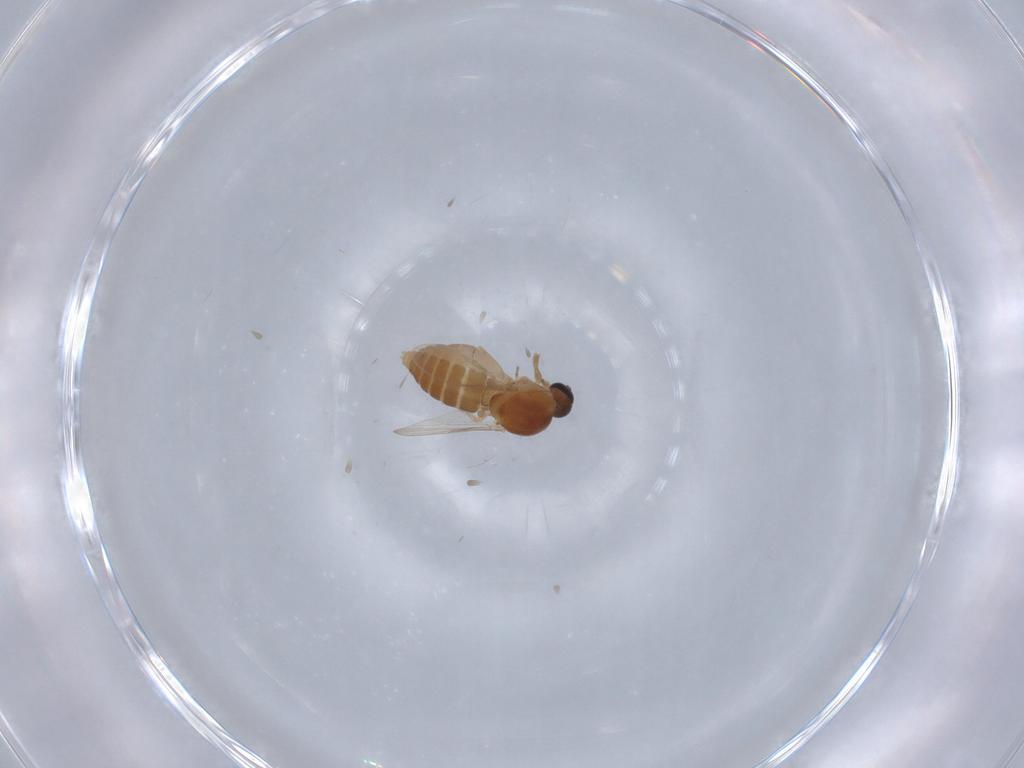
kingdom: Animalia
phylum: Arthropoda
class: Insecta
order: Diptera
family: Ceratopogonidae
